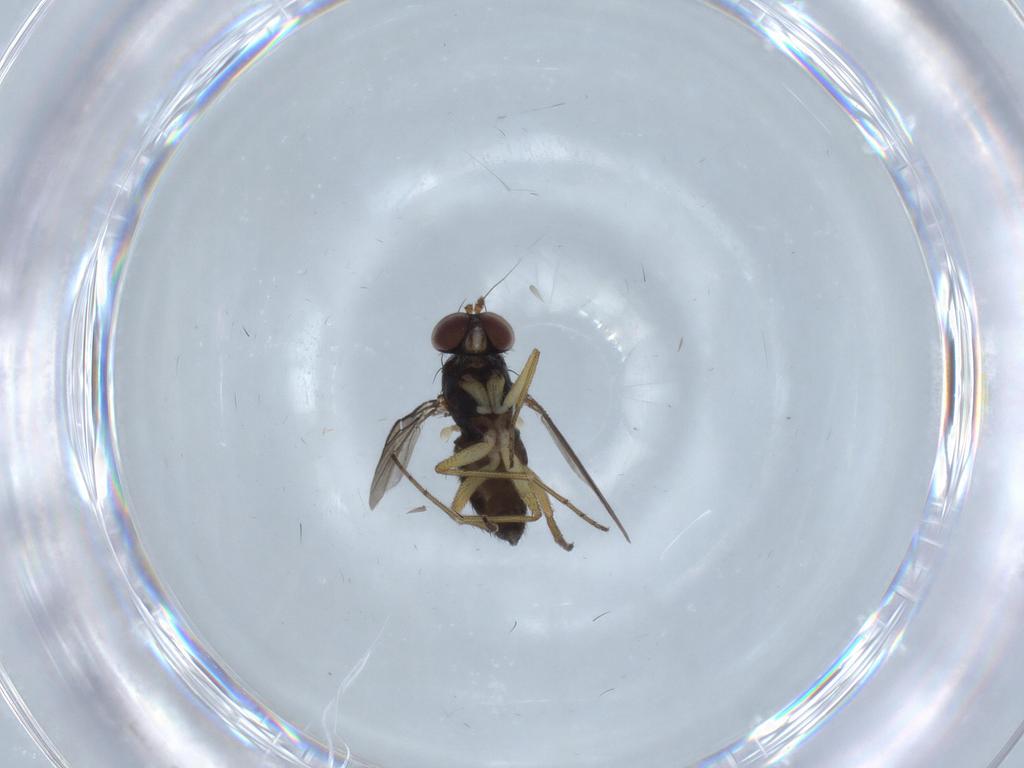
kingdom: Animalia
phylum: Arthropoda
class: Insecta
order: Diptera
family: Dolichopodidae
